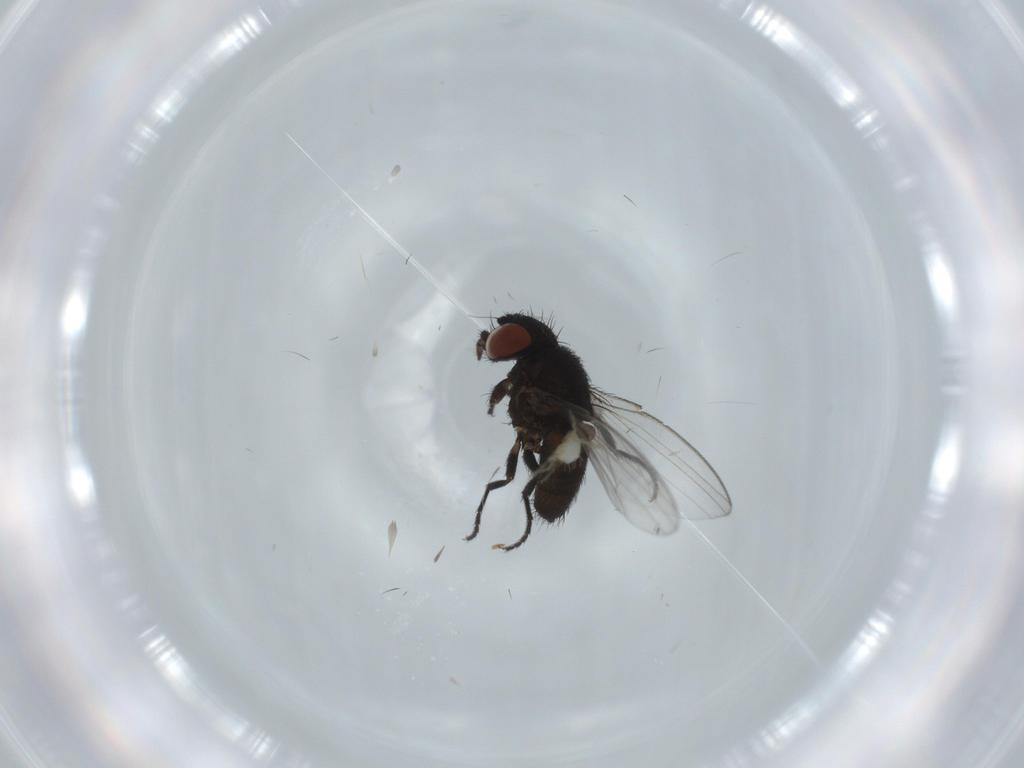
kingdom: Animalia
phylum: Arthropoda
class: Insecta
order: Diptera
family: Milichiidae
